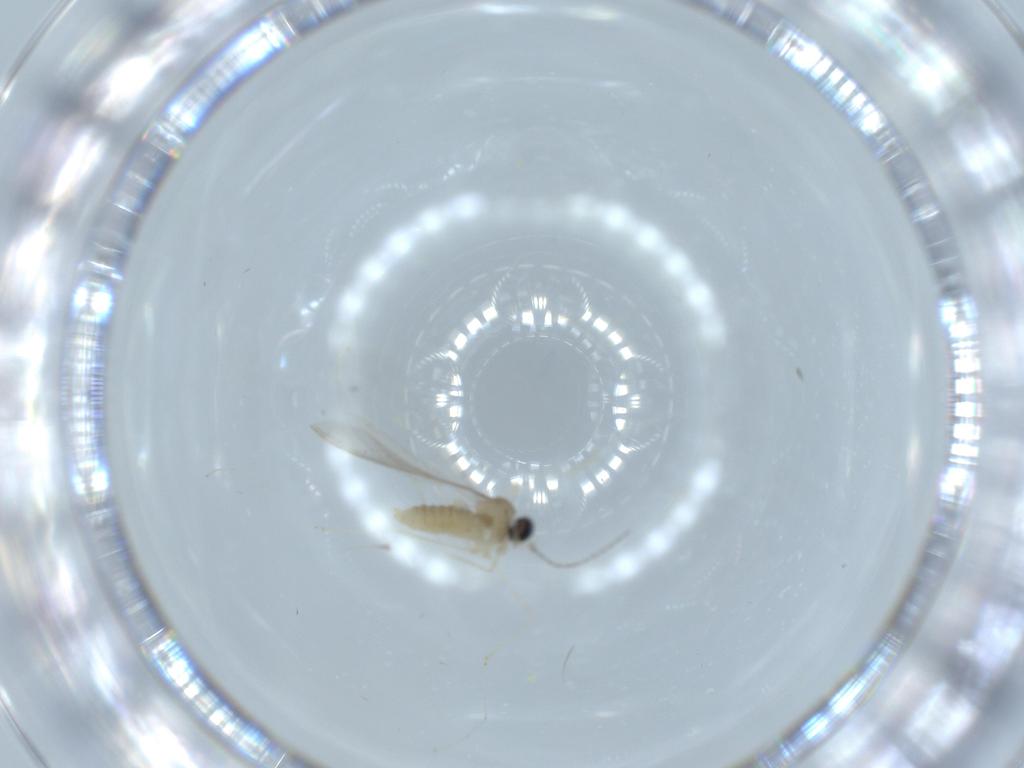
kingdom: Animalia
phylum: Arthropoda
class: Insecta
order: Diptera
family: Cecidomyiidae
